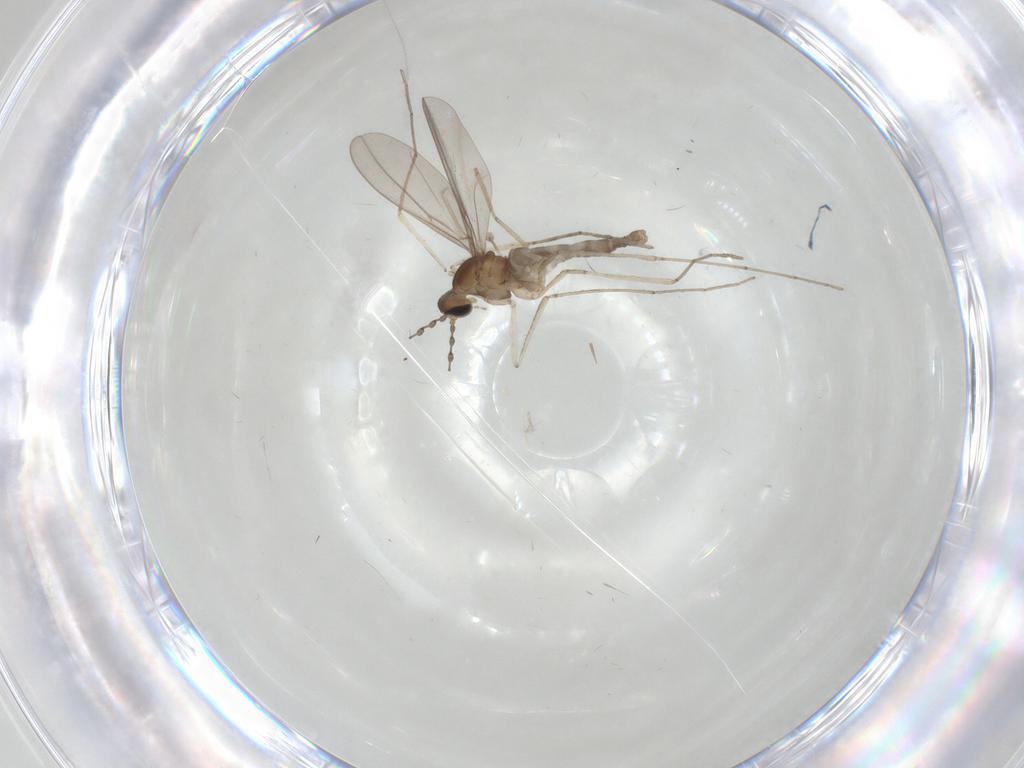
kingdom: Animalia
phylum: Arthropoda
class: Insecta
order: Diptera
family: Cecidomyiidae
